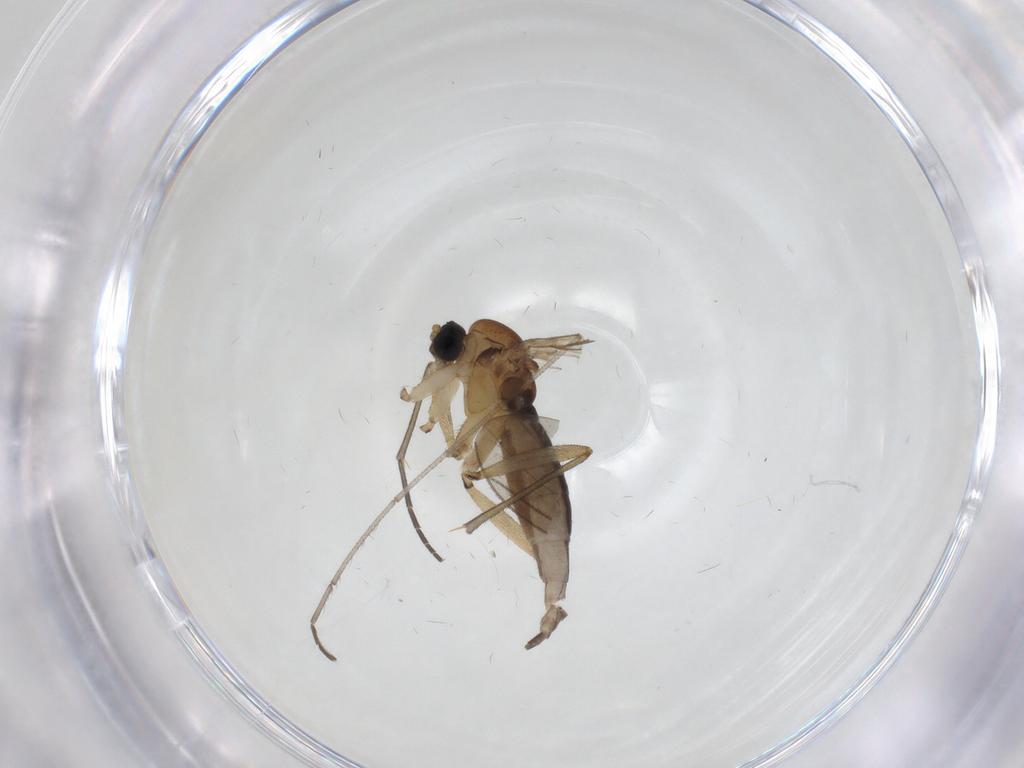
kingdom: Animalia
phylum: Arthropoda
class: Insecta
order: Diptera
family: Sciaridae
